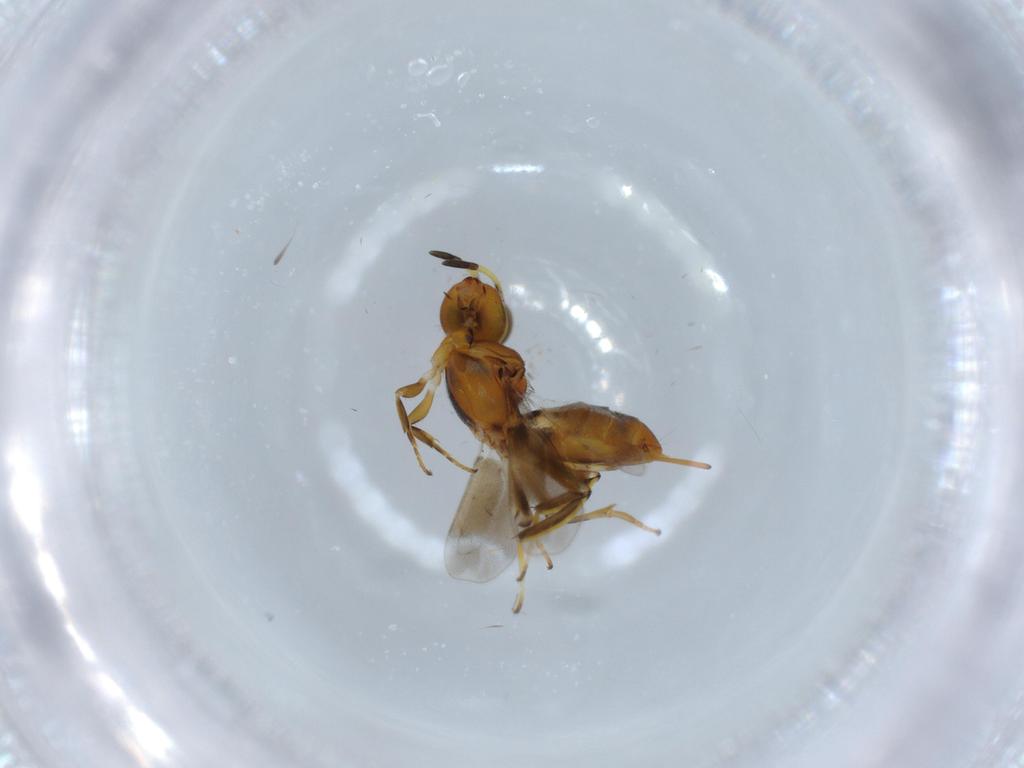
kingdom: Animalia
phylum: Arthropoda
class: Insecta
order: Hymenoptera
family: Eupelmidae
